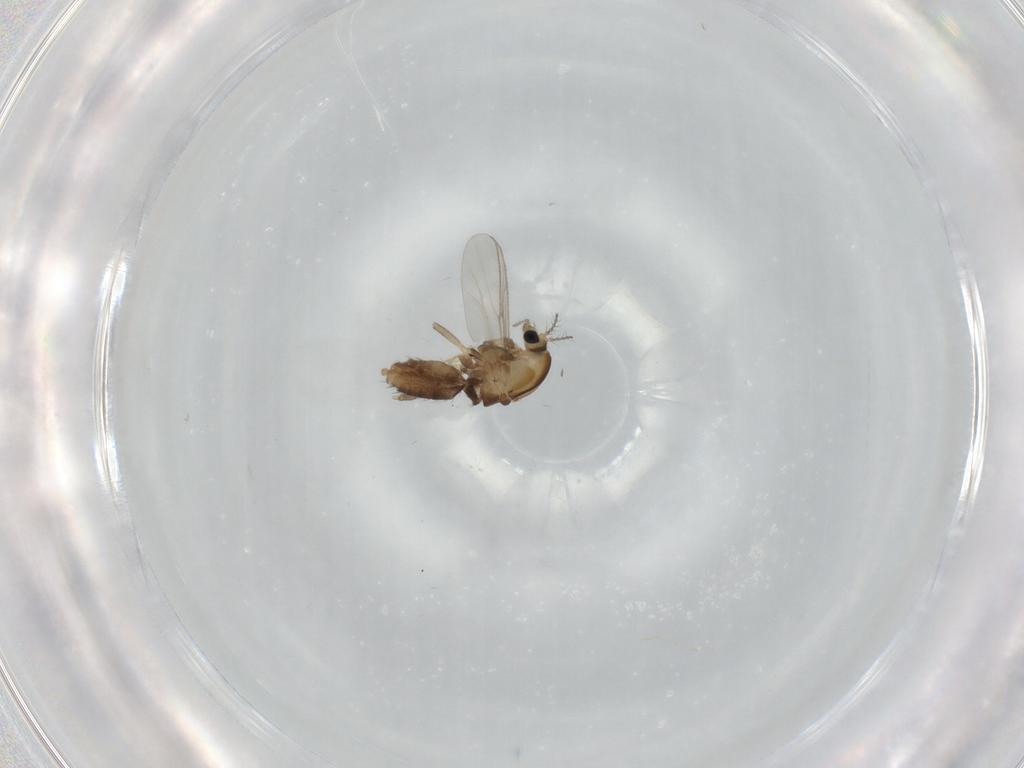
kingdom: Animalia
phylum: Arthropoda
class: Insecta
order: Diptera
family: Chironomidae
